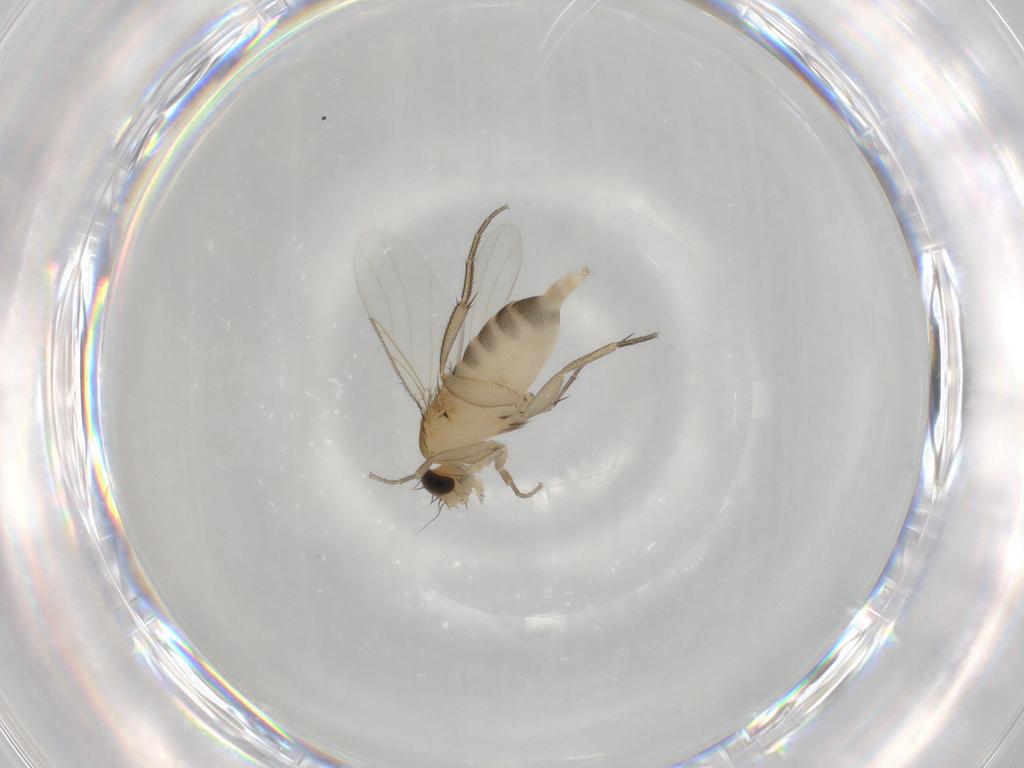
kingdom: Animalia
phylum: Arthropoda
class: Insecta
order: Diptera
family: Phoridae
